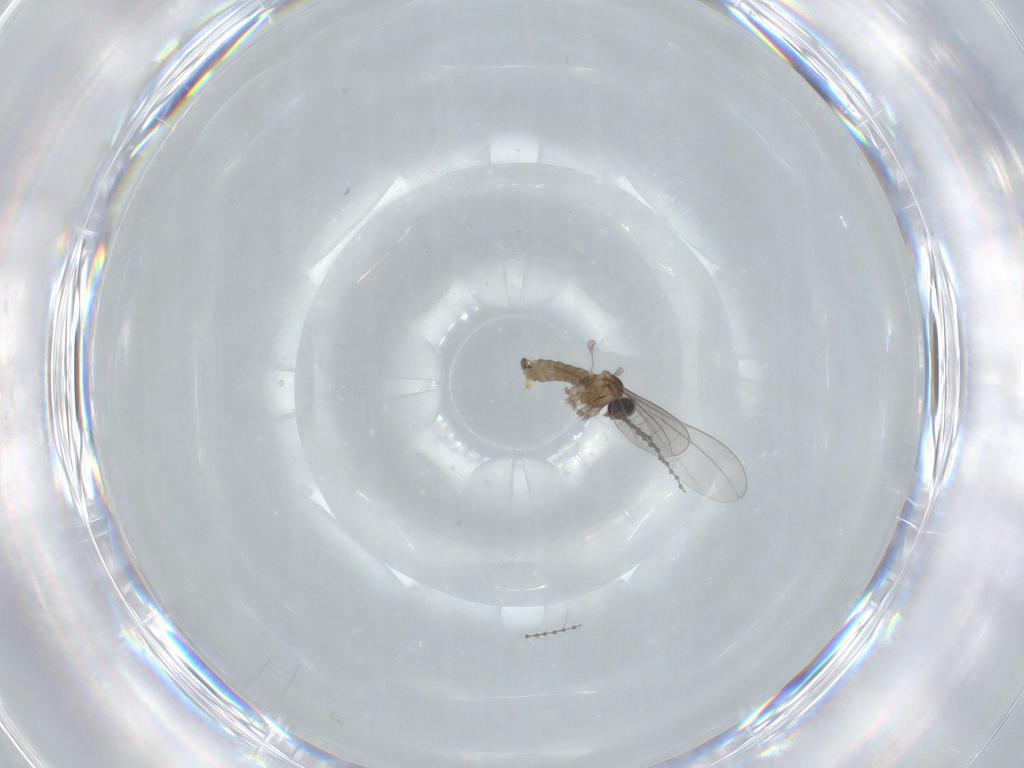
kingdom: Animalia
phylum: Arthropoda
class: Insecta
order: Diptera
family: Cecidomyiidae
